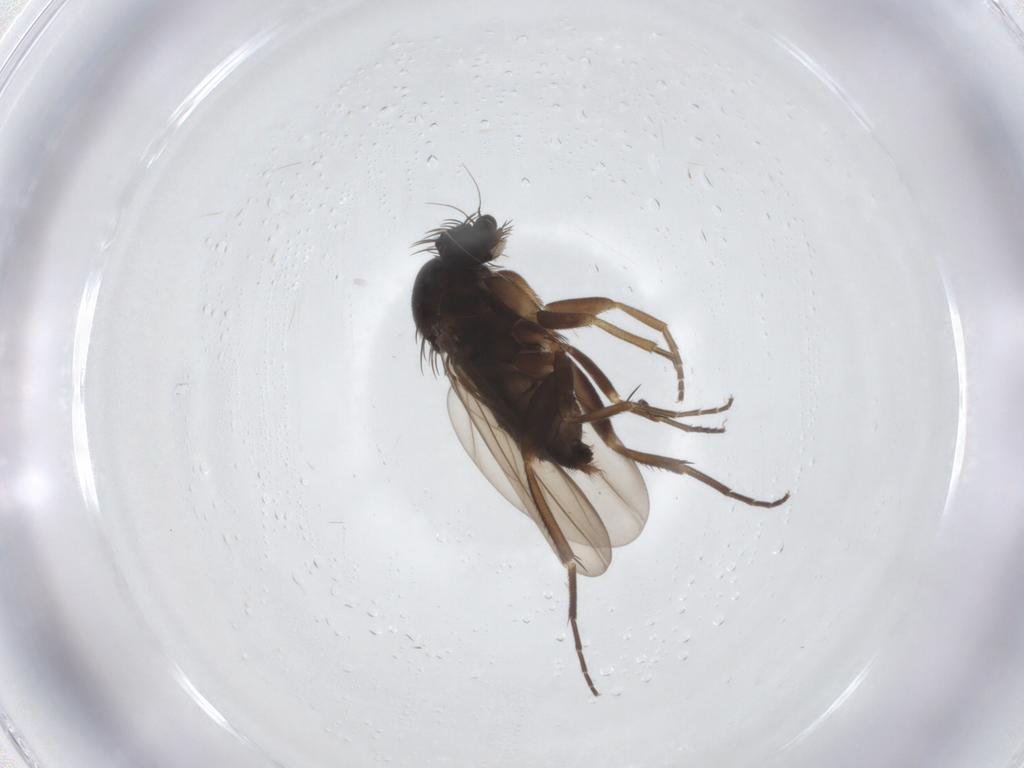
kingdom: Animalia
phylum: Arthropoda
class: Insecta
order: Diptera
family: Phoridae
